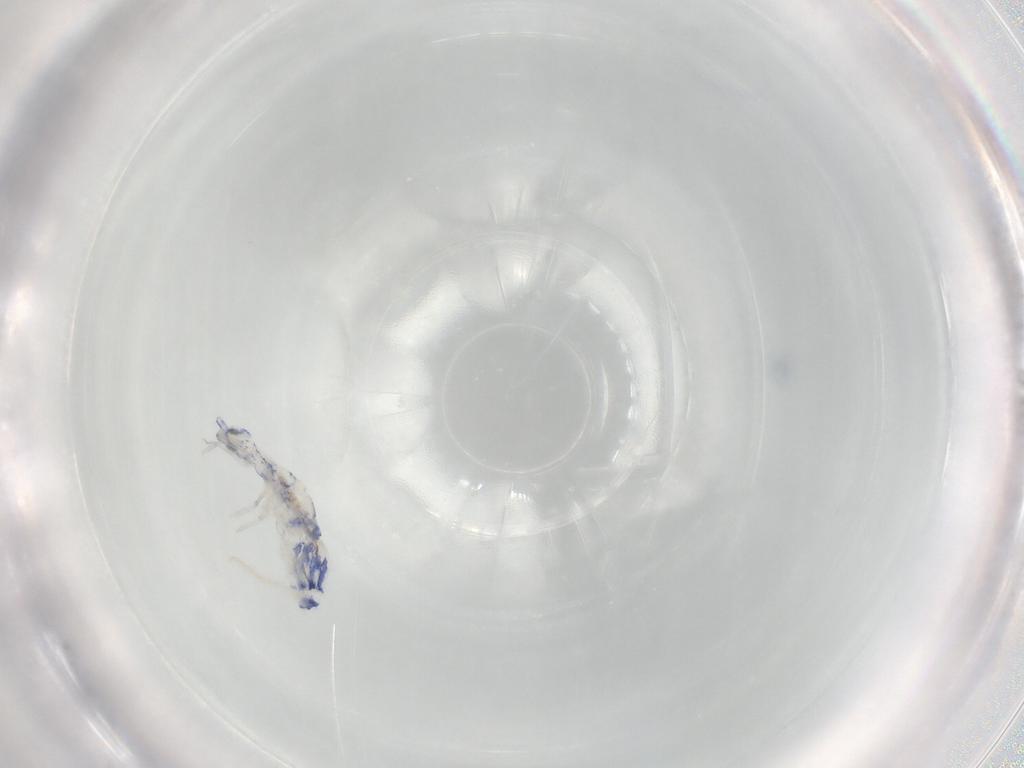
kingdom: Animalia
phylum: Arthropoda
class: Collembola
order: Entomobryomorpha
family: Entomobryidae
